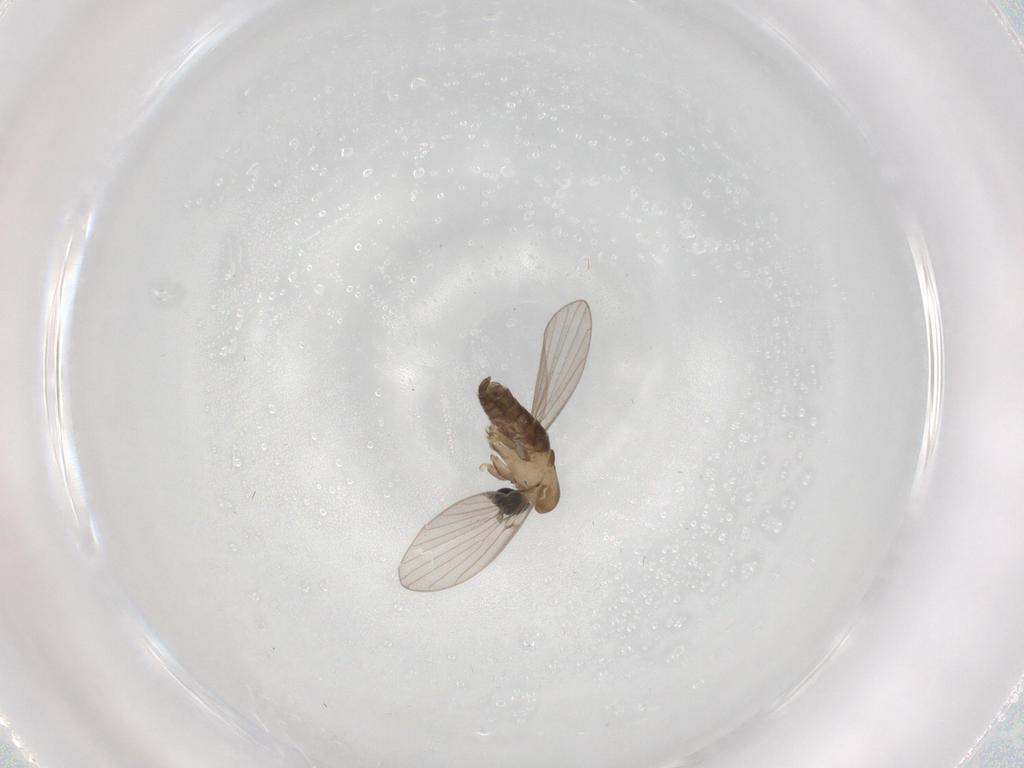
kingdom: Animalia
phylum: Arthropoda
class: Insecta
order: Diptera
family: Psychodidae
